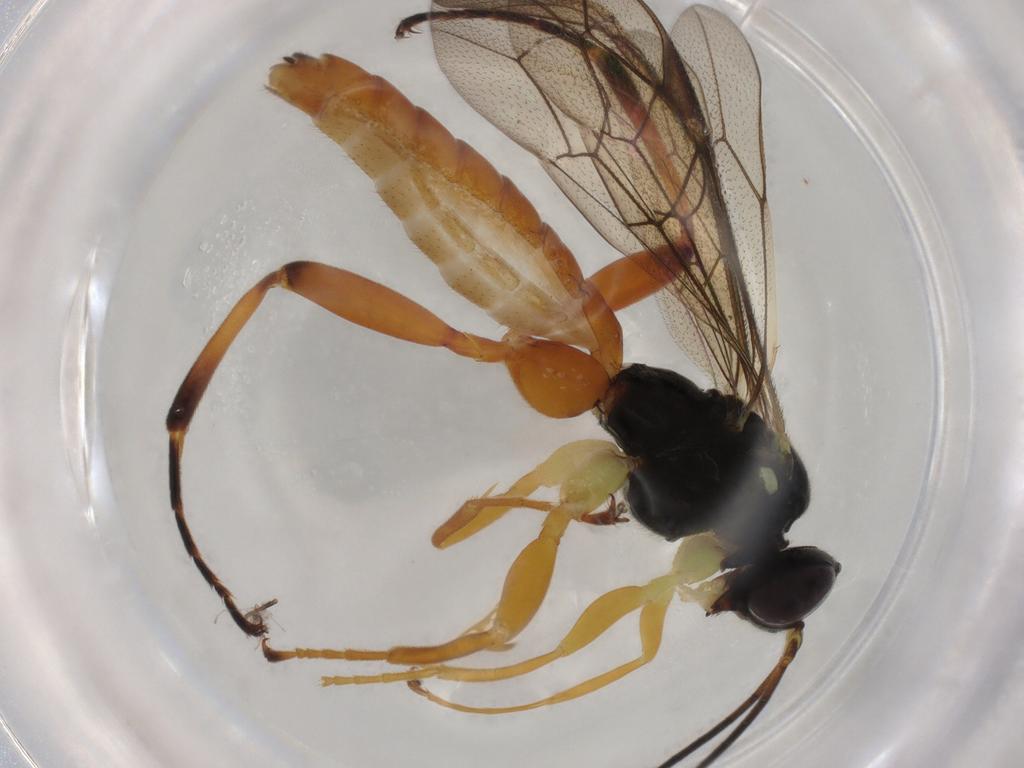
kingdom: Animalia
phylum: Arthropoda
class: Insecta
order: Hymenoptera
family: Ichneumonidae
